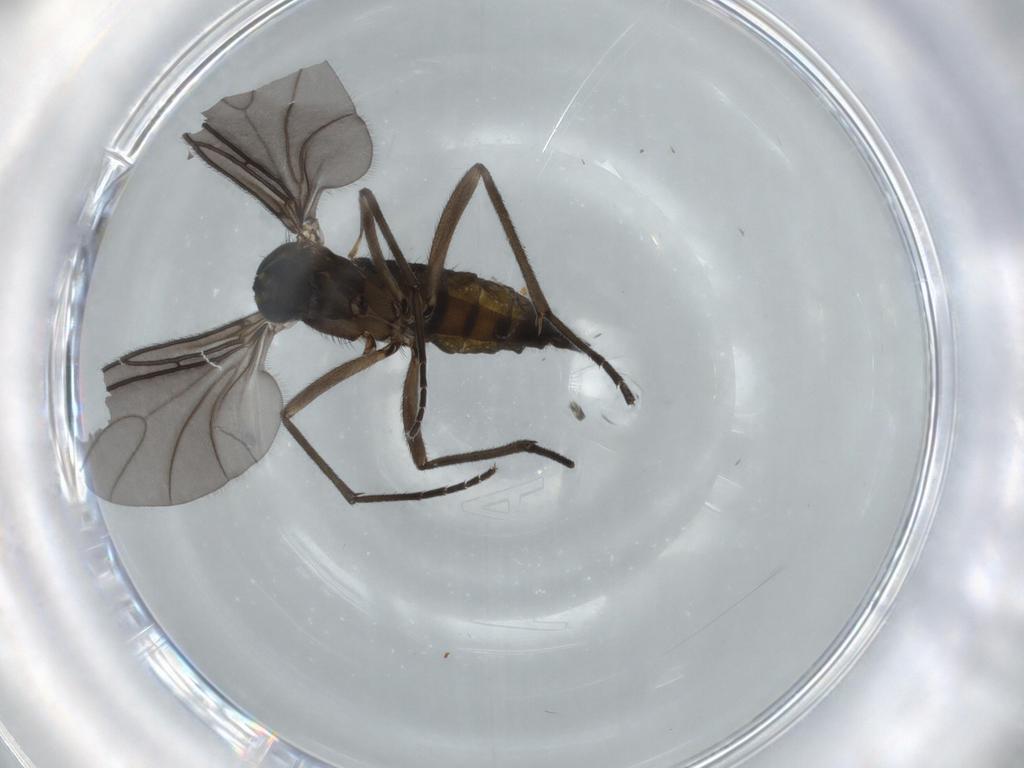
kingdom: Animalia
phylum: Arthropoda
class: Insecta
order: Diptera
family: Sciaridae
